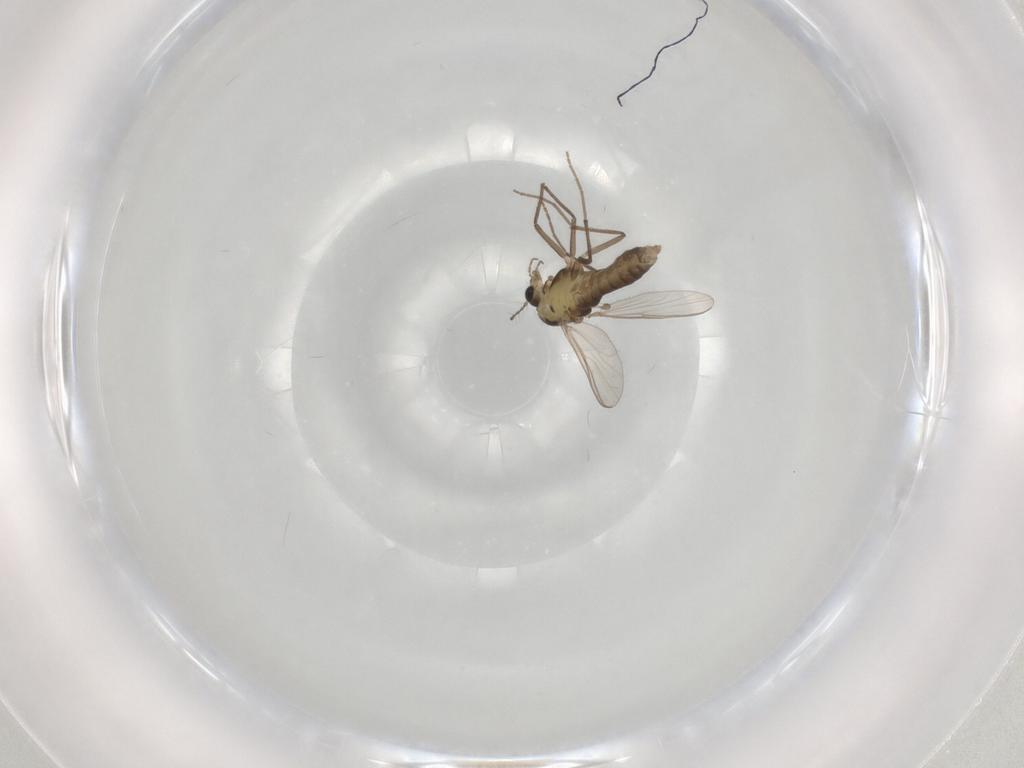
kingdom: Animalia
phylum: Arthropoda
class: Insecta
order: Diptera
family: Chironomidae
